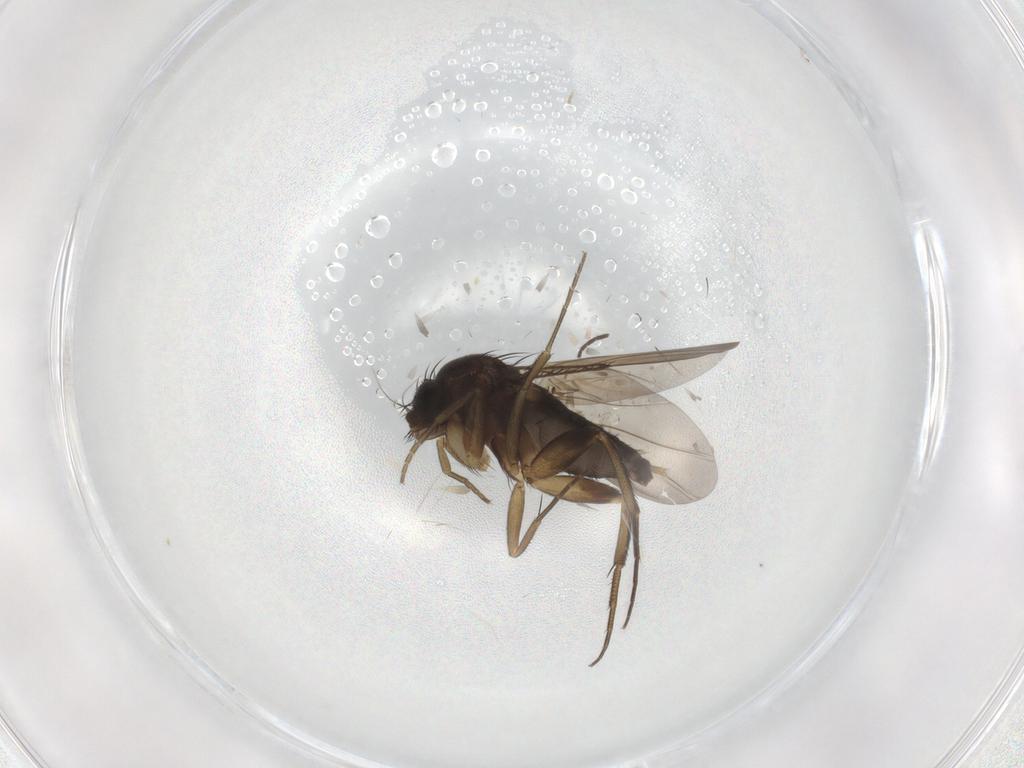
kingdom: Animalia
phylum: Arthropoda
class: Insecta
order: Diptera
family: Phoridae
